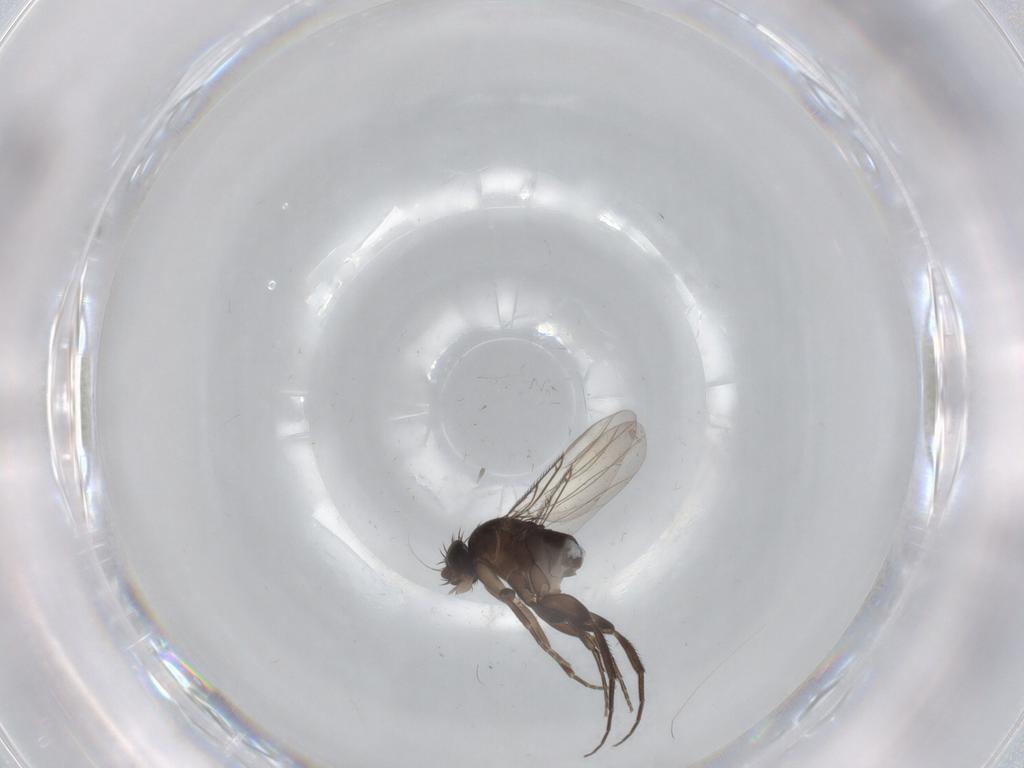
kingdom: Animalia
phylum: Arthropoda
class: Insecta
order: Diptera
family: Phoridae
